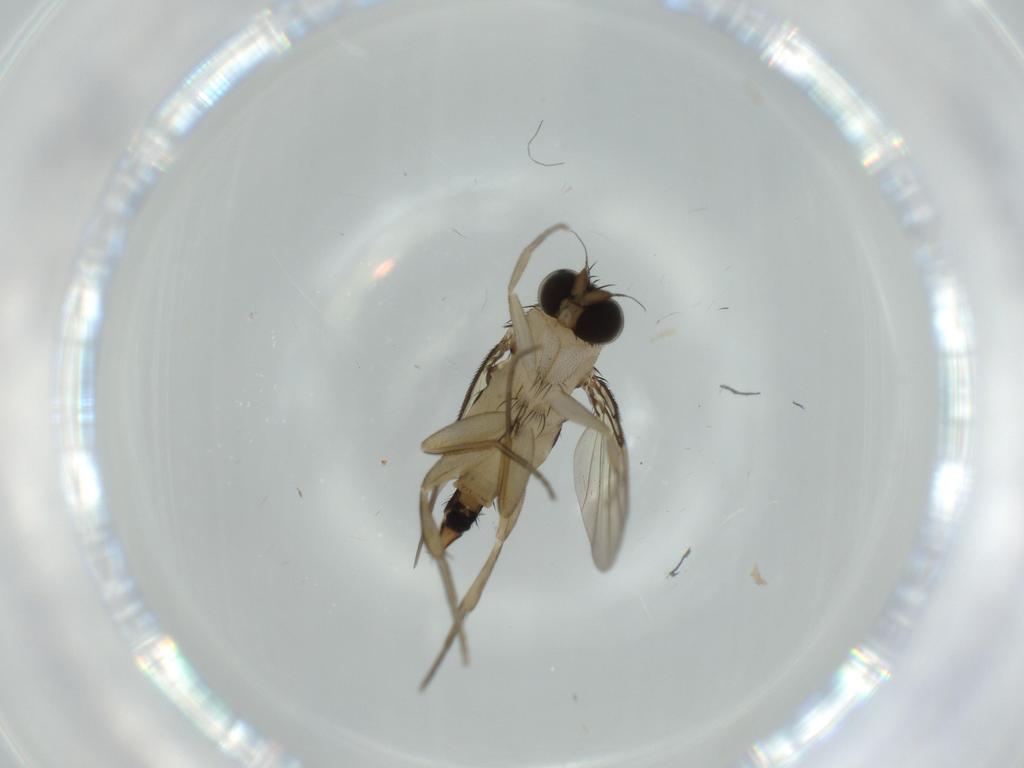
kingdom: Animalia
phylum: Arthropoda
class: Insecta
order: Diptera
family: Phoridae
